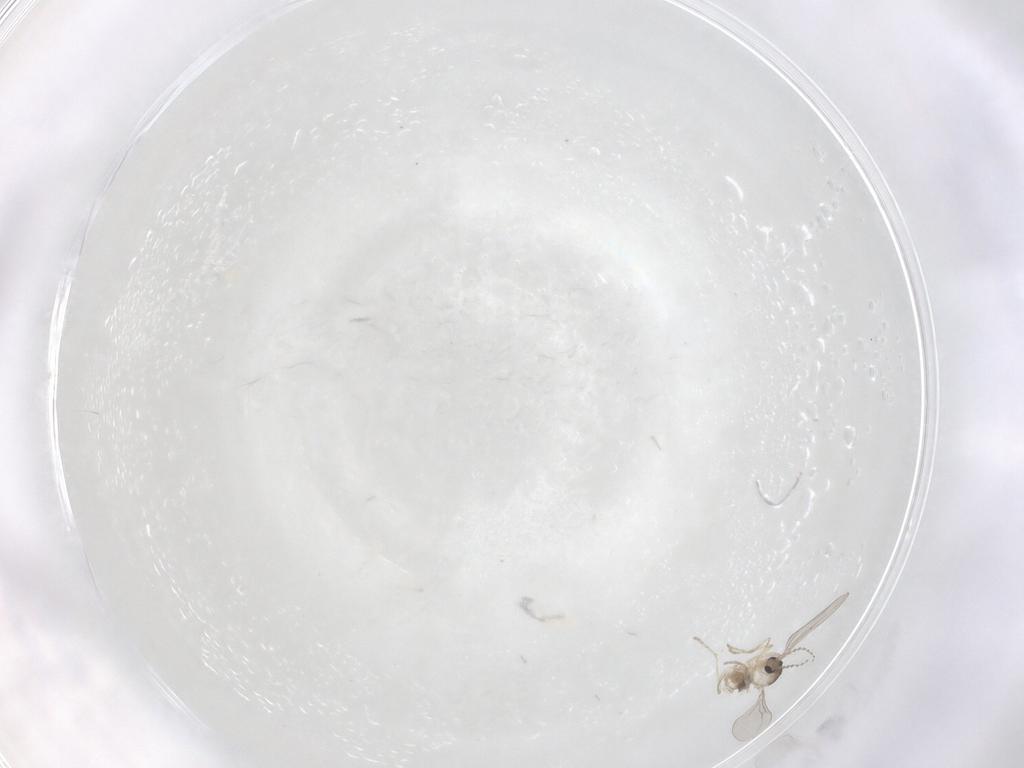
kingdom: Animalia
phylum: Arthropoda
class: Insecta
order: Diptera
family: Cecidomyiidae
